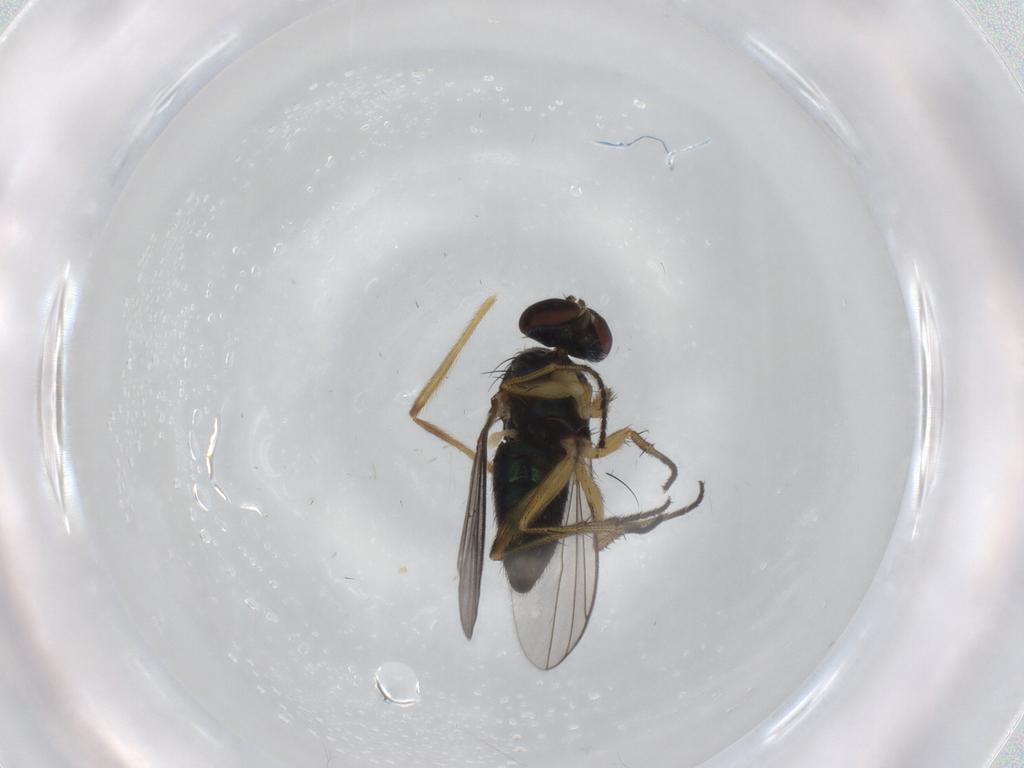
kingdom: Animalia
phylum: Arthropoda
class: Insecta
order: Diptera
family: Dolichopodidae
